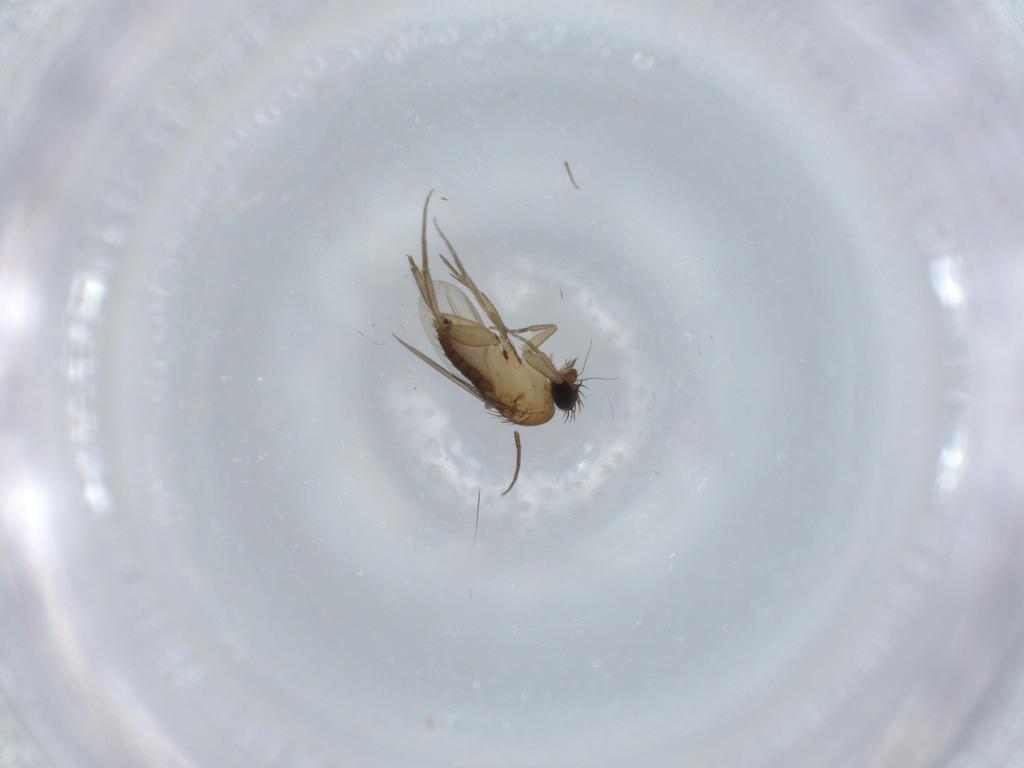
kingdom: Animalia
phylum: Arthropoda
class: Insecta
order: Diptera
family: Phoridae
